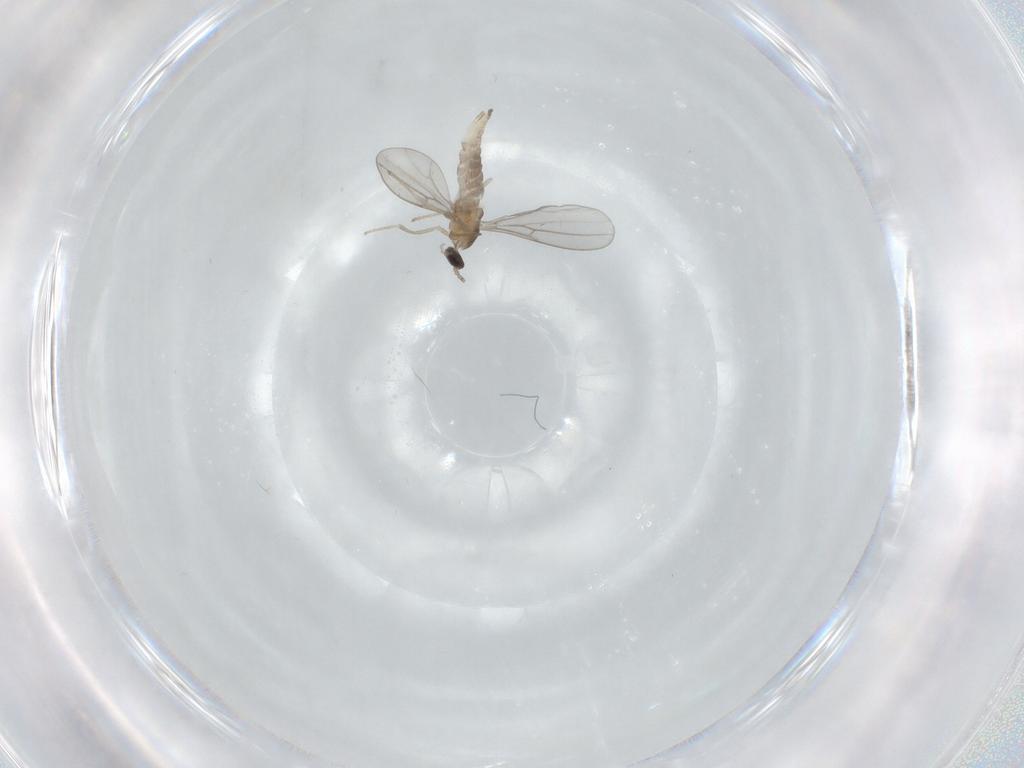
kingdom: Animalia
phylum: Arthropoda
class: Insecta
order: Diptera
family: Cecidomyiidae
